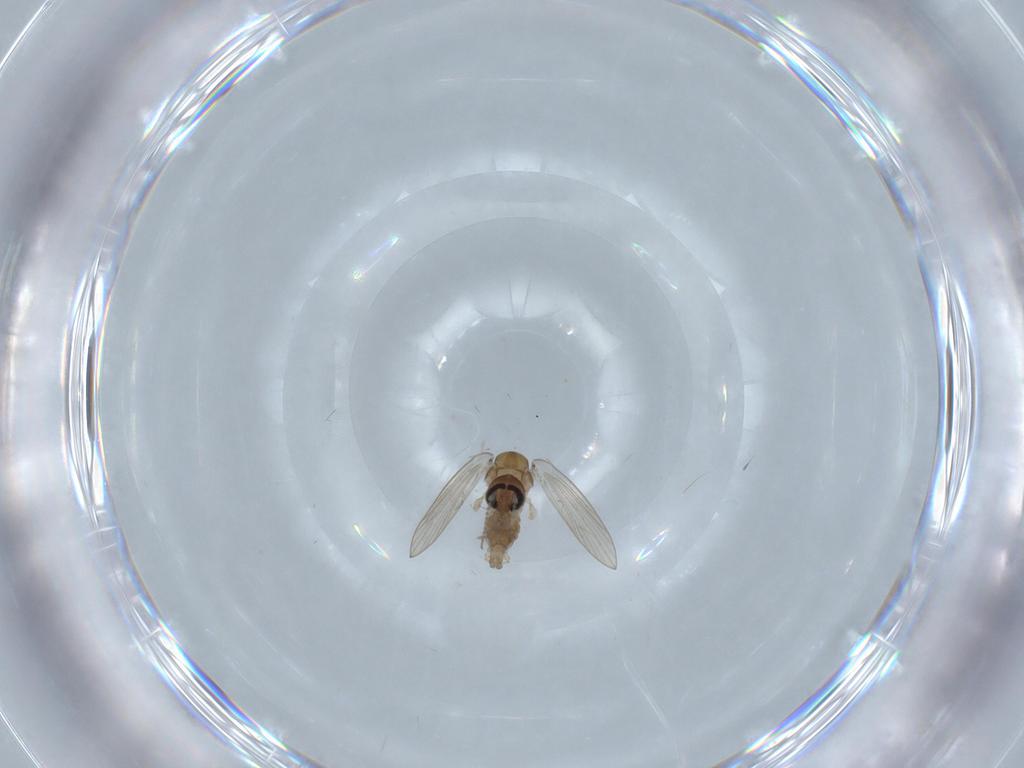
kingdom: Animalia
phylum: Arthropoda
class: Insecta
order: Diptera
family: Psychodidae
